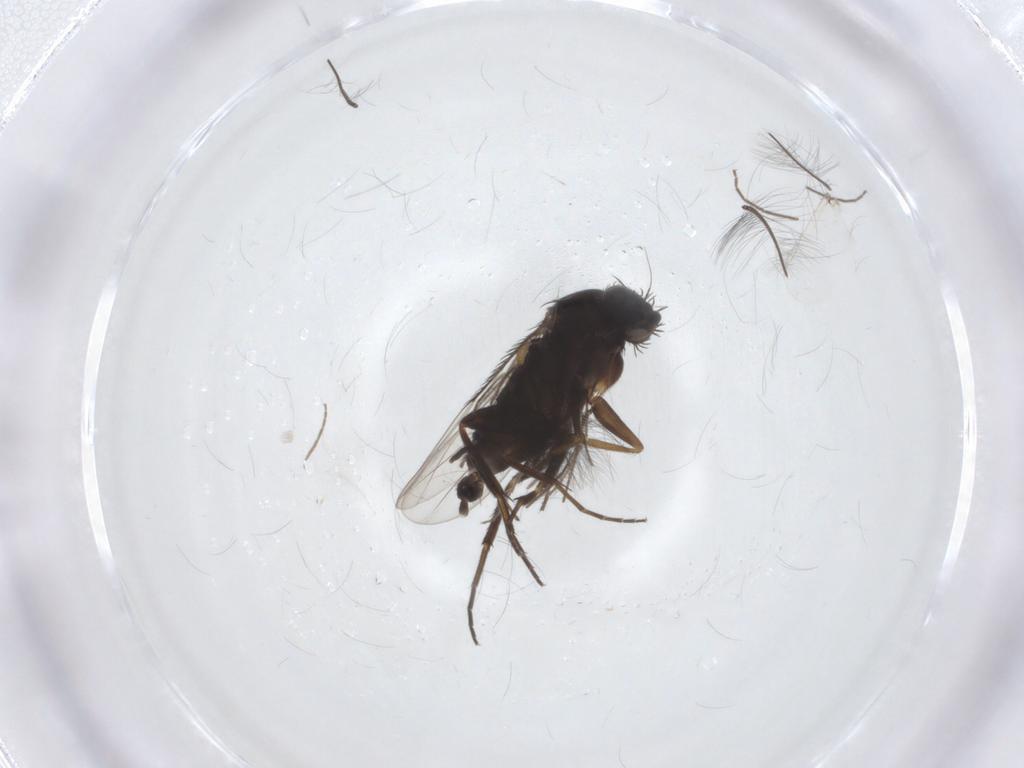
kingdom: Animalia
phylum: Arthropoda
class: Insecta
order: Diptera
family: Phoridae
